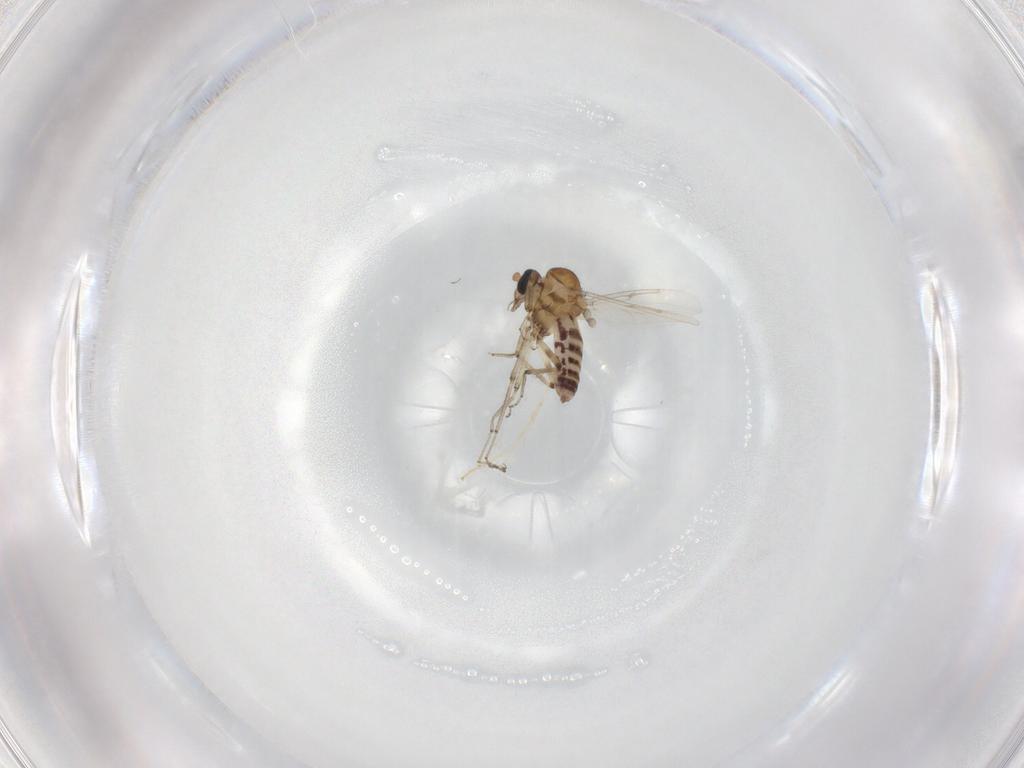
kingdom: Animalia
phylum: Arthropoda
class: Insecta
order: Diptera
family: Ceratopogonidae
